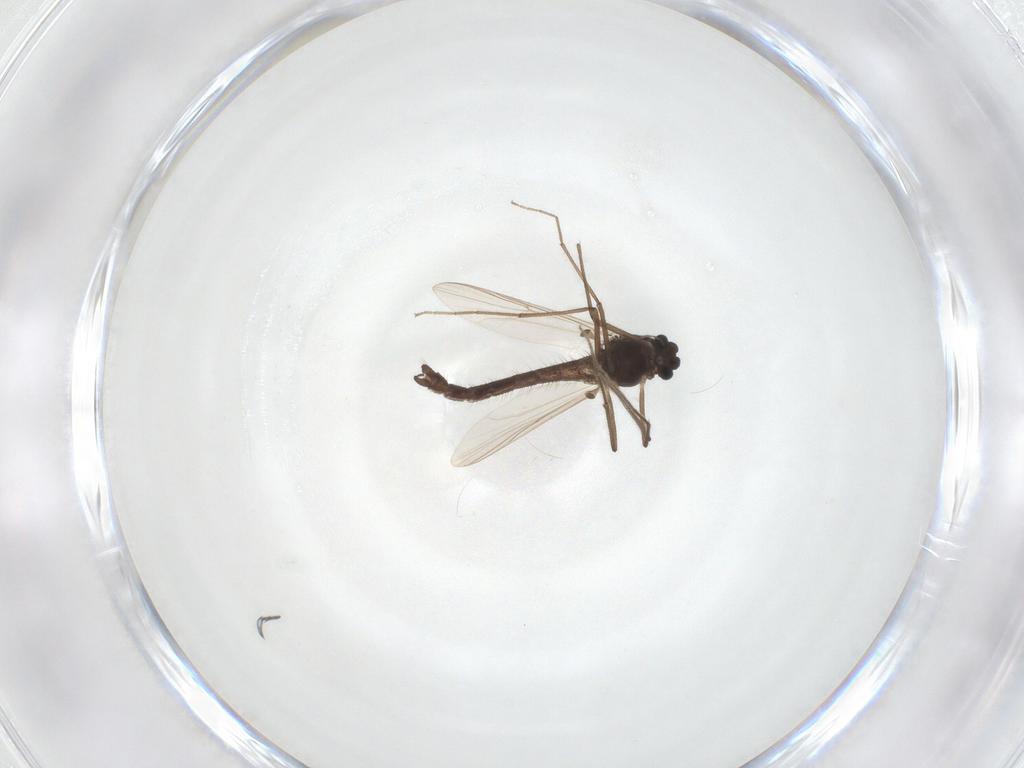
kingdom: Animalia
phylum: Arthropoda
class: Insecta
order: Diptera
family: Chironomidae
